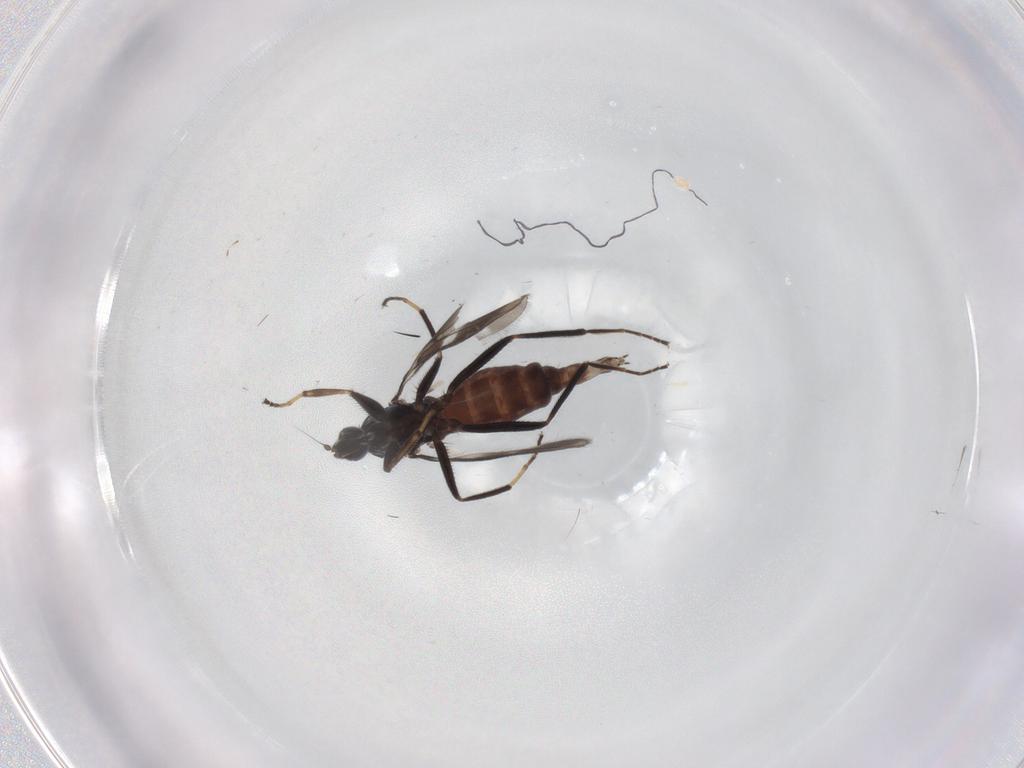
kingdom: Animalia
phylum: Arthropoda
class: Insecta
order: Diptera
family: Hybotidae
